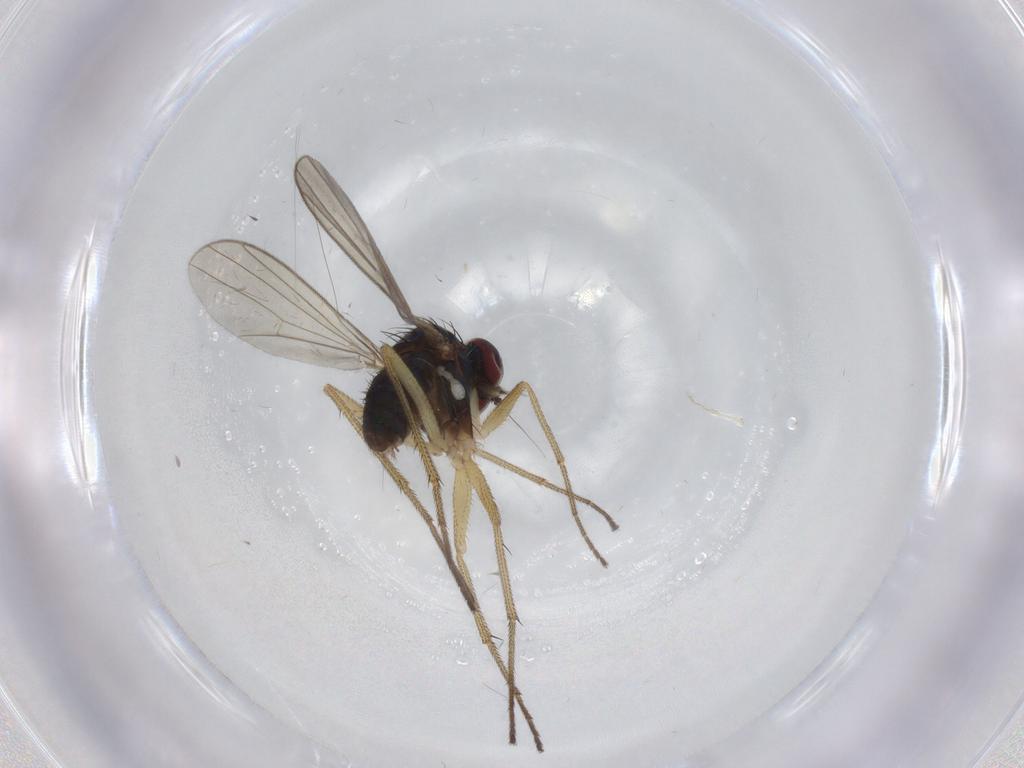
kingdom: Animalia
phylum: Arthropoda
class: Insecta
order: Diptera
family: Dolichopodidae
